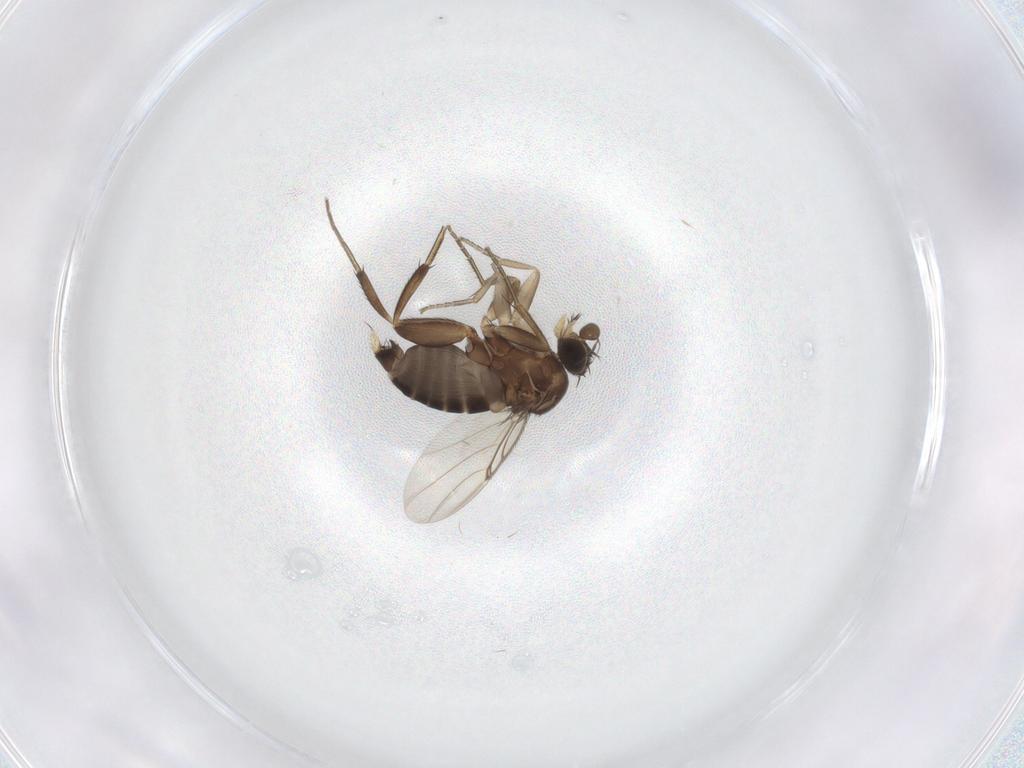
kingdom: Animalia
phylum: Arthropoda
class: Insecta
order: Diptera
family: Phoridae
